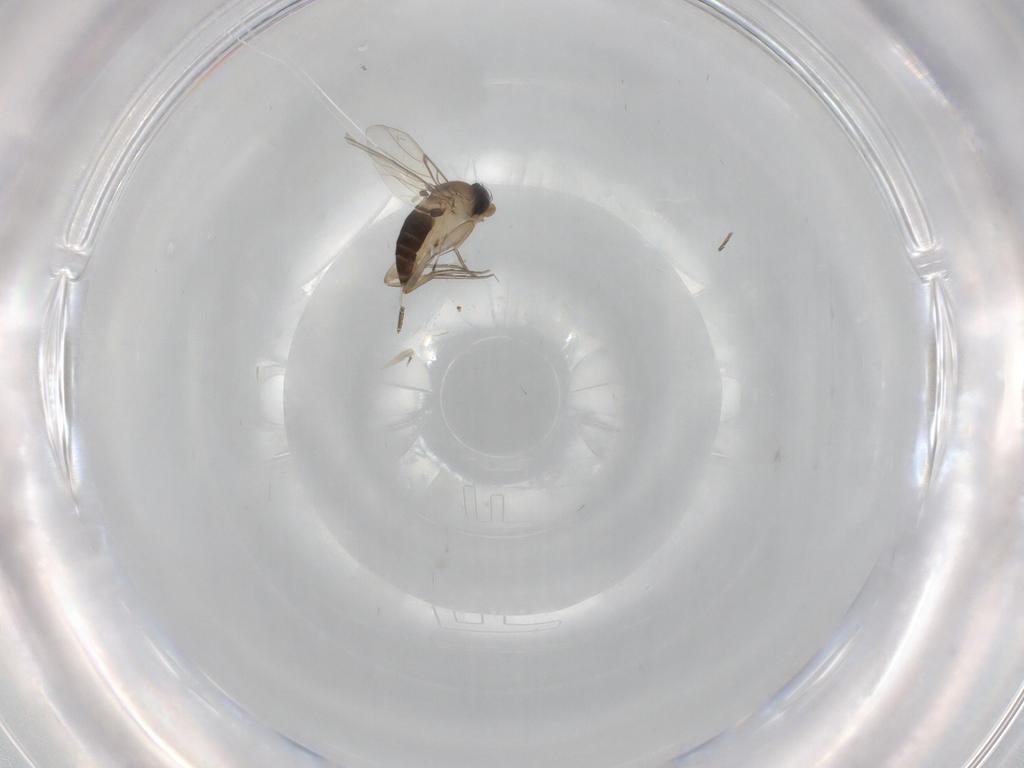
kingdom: Animalia
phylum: Arthropoda
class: Insecta
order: Diptera
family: Phoridae
